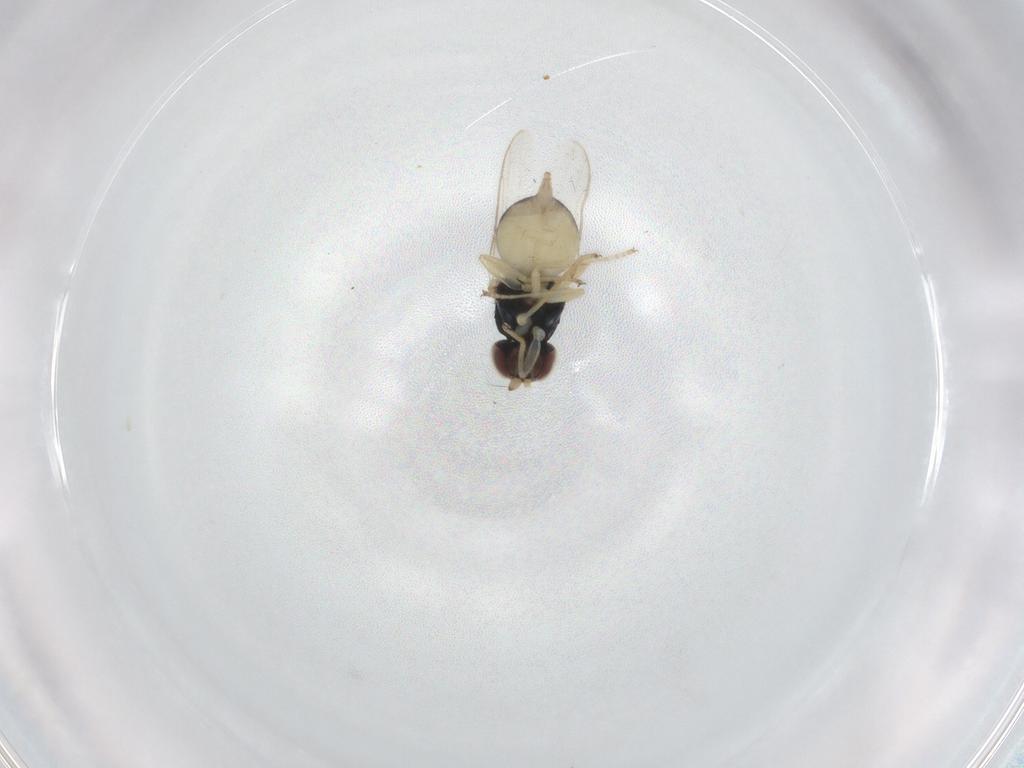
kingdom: Animalia
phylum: Arthropoda
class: Insecta
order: Diptera
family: Chloropidae
